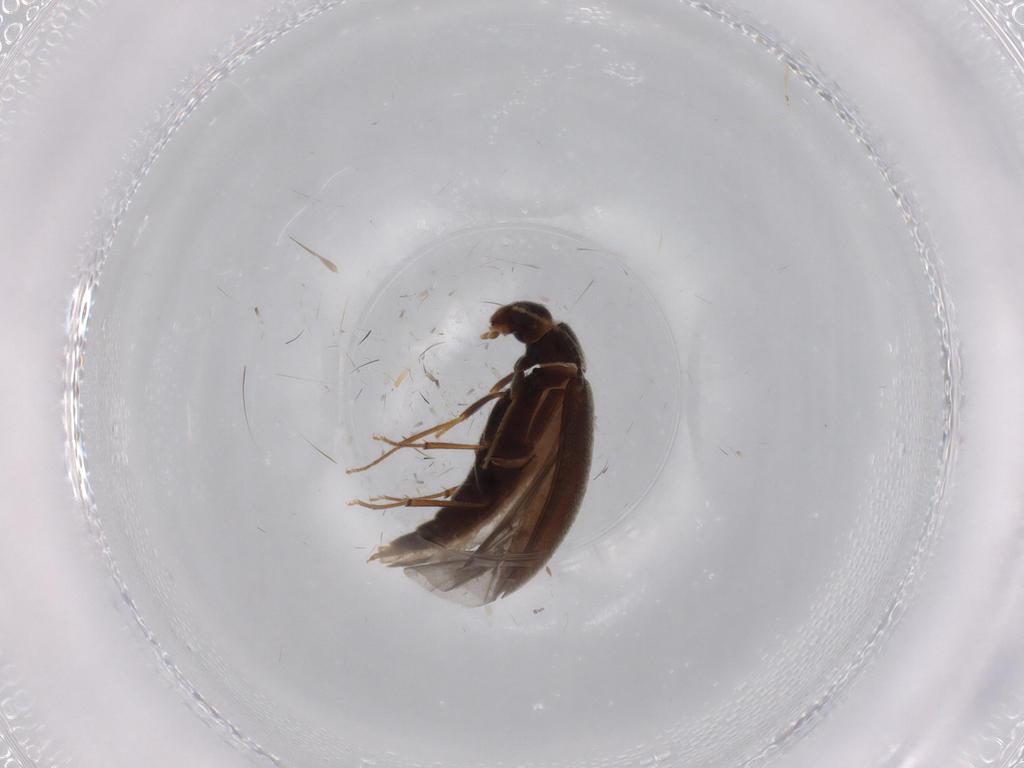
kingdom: Animalia
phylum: Arthropoda
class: Insecta
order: Coleoptera
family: Melandryidae
